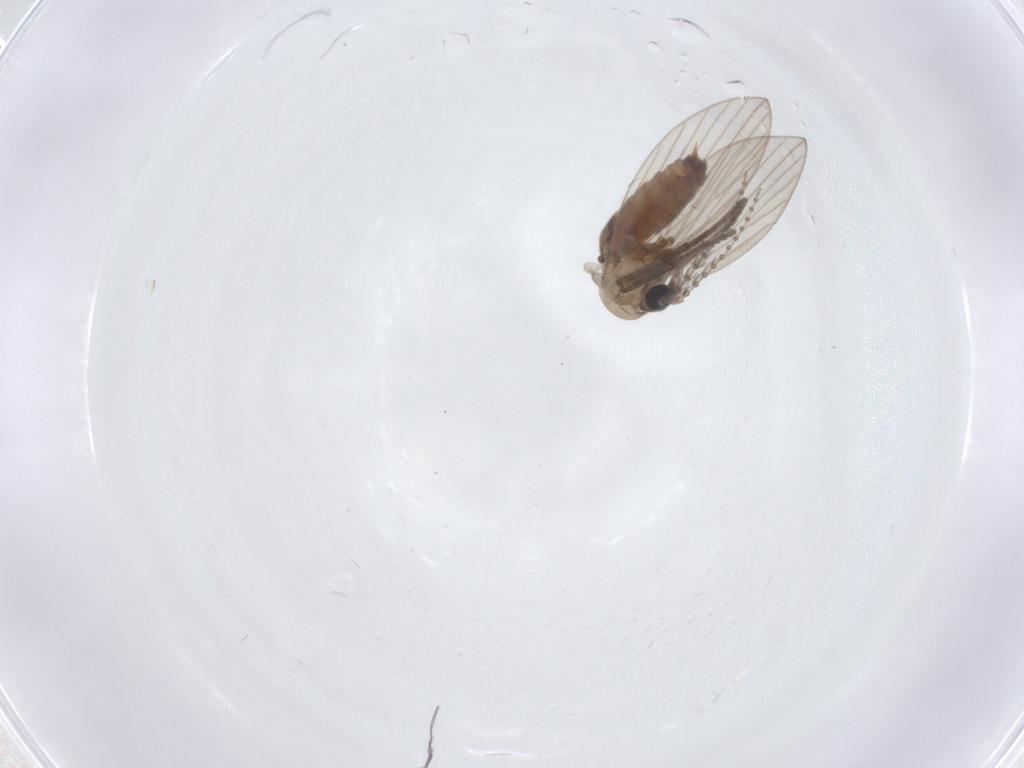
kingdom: Animalia
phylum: Arthropoda
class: Insecta
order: Diptera
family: Psychodidae
